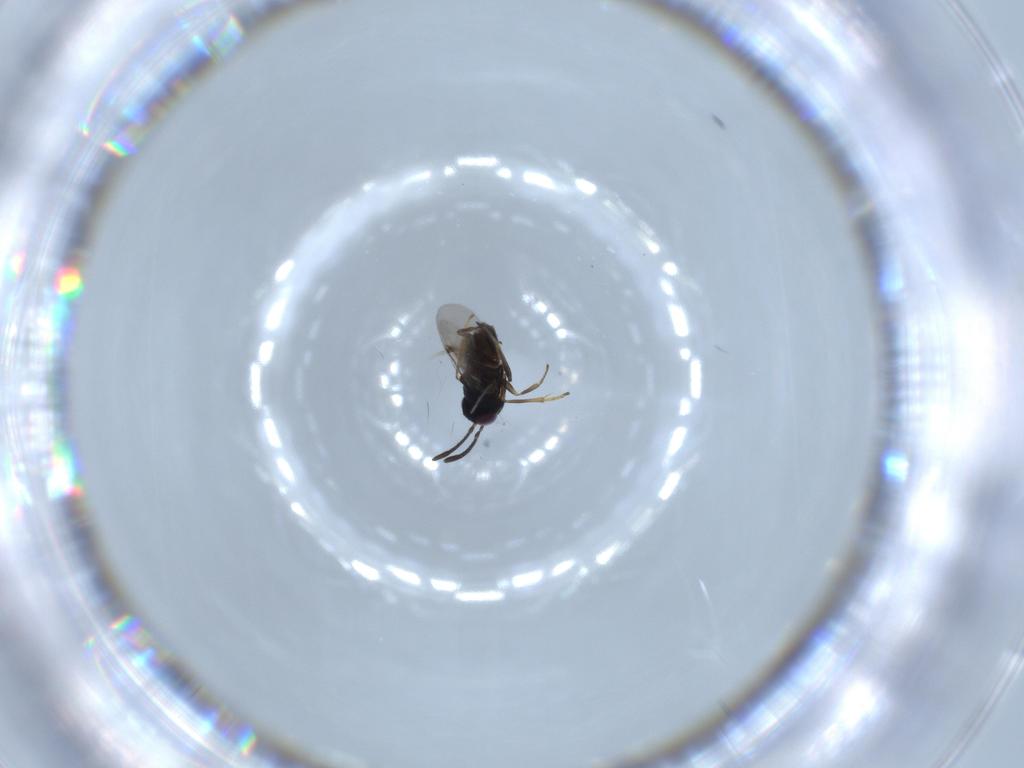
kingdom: Animalia
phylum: Arthropoda
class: Insecta
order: Hymenoptera
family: Encyrtidae
